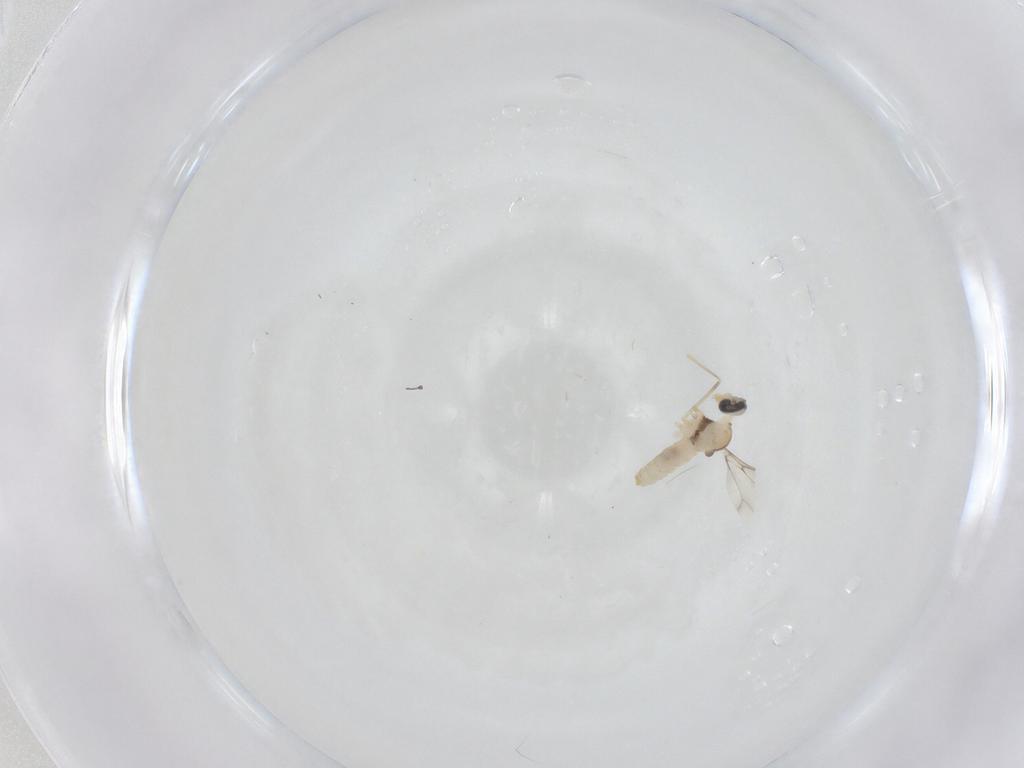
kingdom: Animalia
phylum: Arthropoda
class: Insecta
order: Diptera
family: Cecidomyiidae
